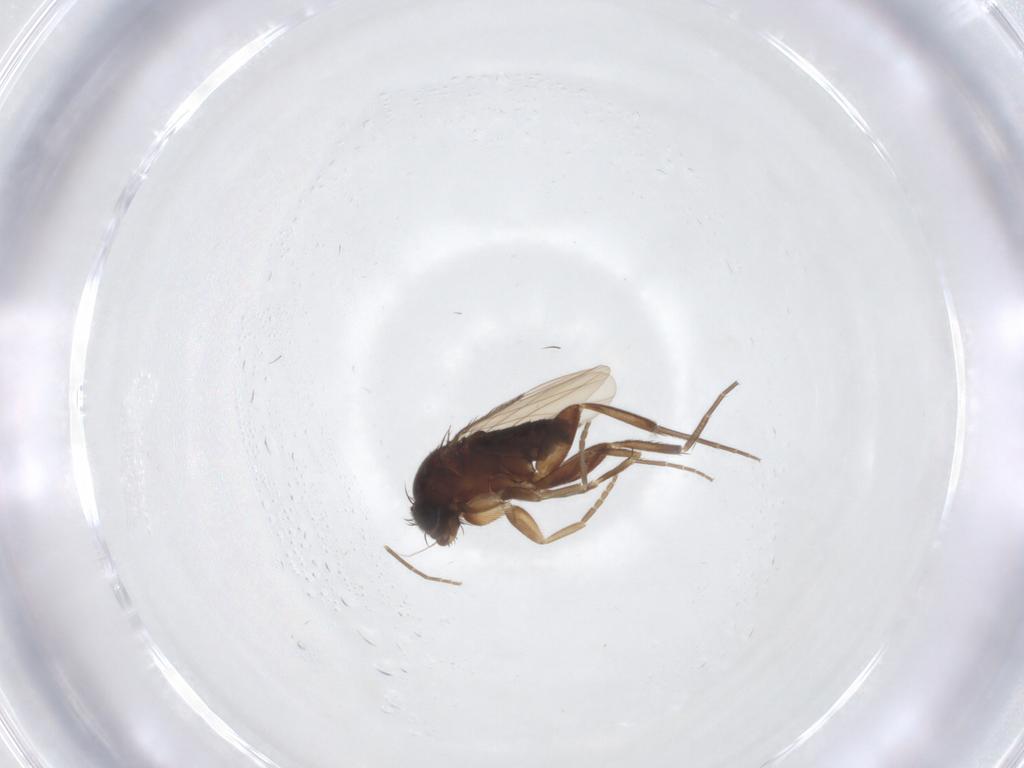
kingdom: Animalia
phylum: Arthropoda
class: Insecta
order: Diptera
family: Phoridae
